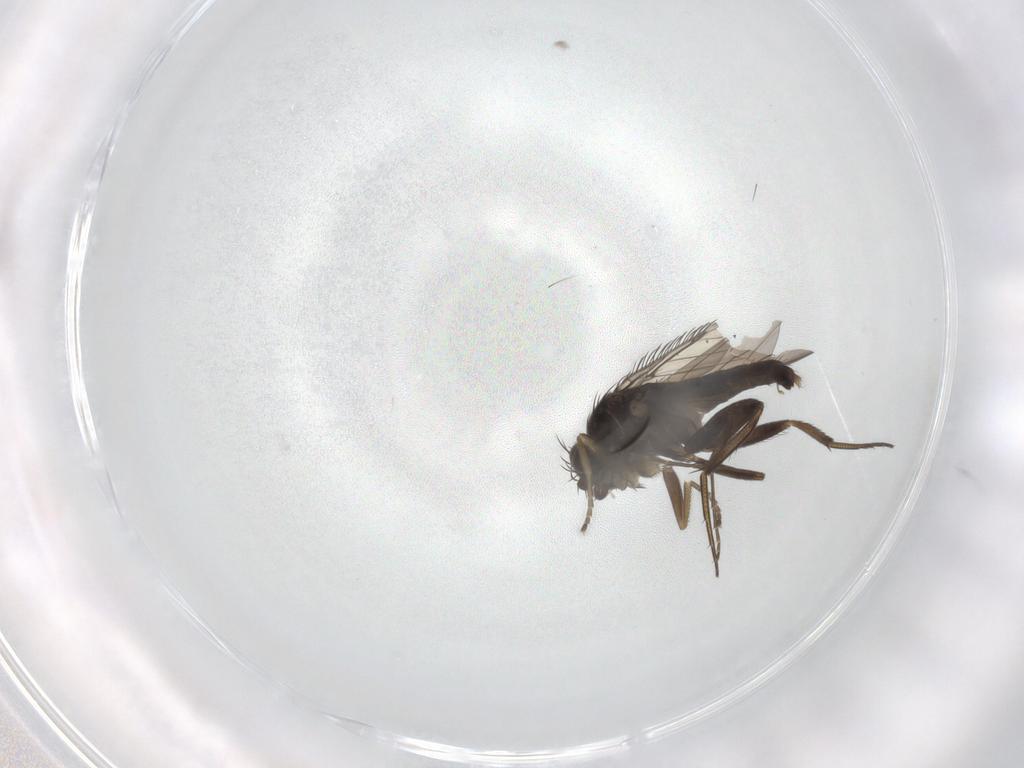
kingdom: Animalia
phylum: Arthropoda
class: Insecta
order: Diptera
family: Phoridae
